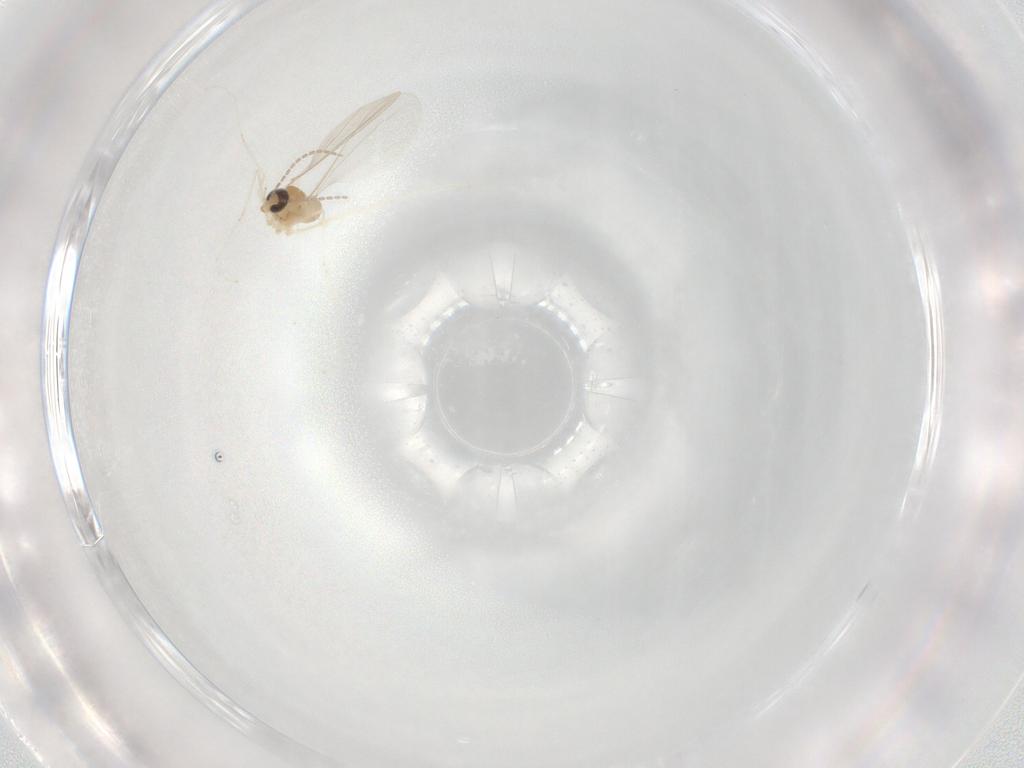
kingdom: Animalia
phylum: Arthropoda
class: Insecta
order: Diptera
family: Cecidomyiidae
